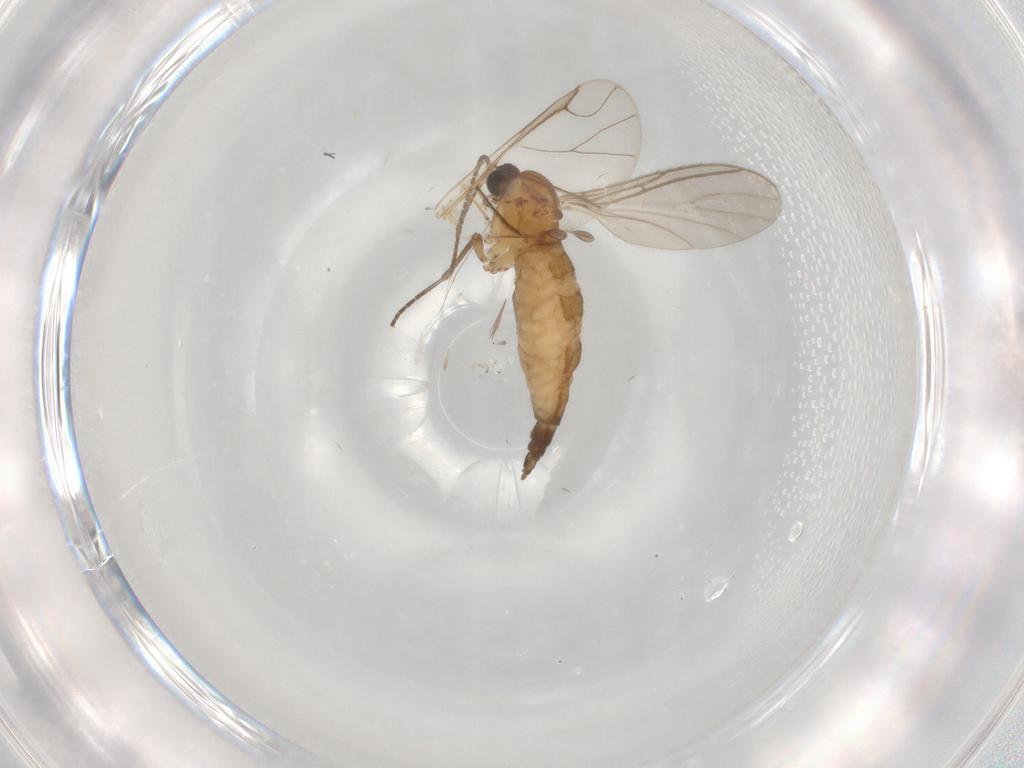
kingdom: Animalia
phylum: Arthropoda
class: Insecta
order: Diptera
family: Sciaridae
